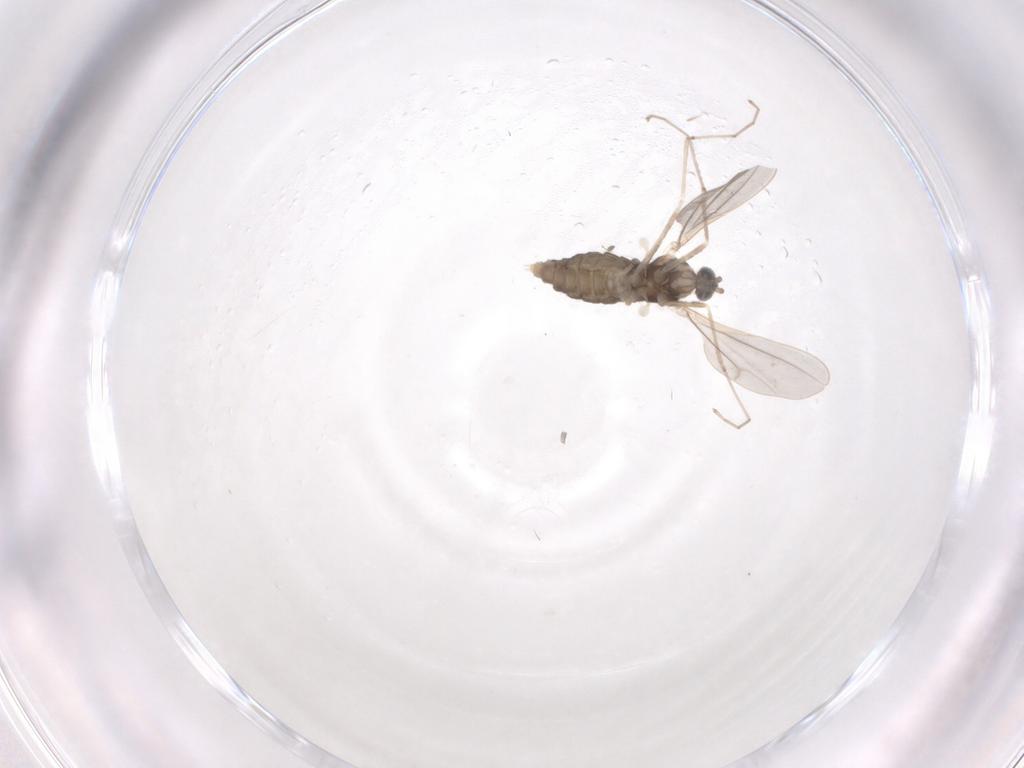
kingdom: Animalia
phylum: Arthropoda
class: Insecta
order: Diptera
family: Cecidomyiidae
